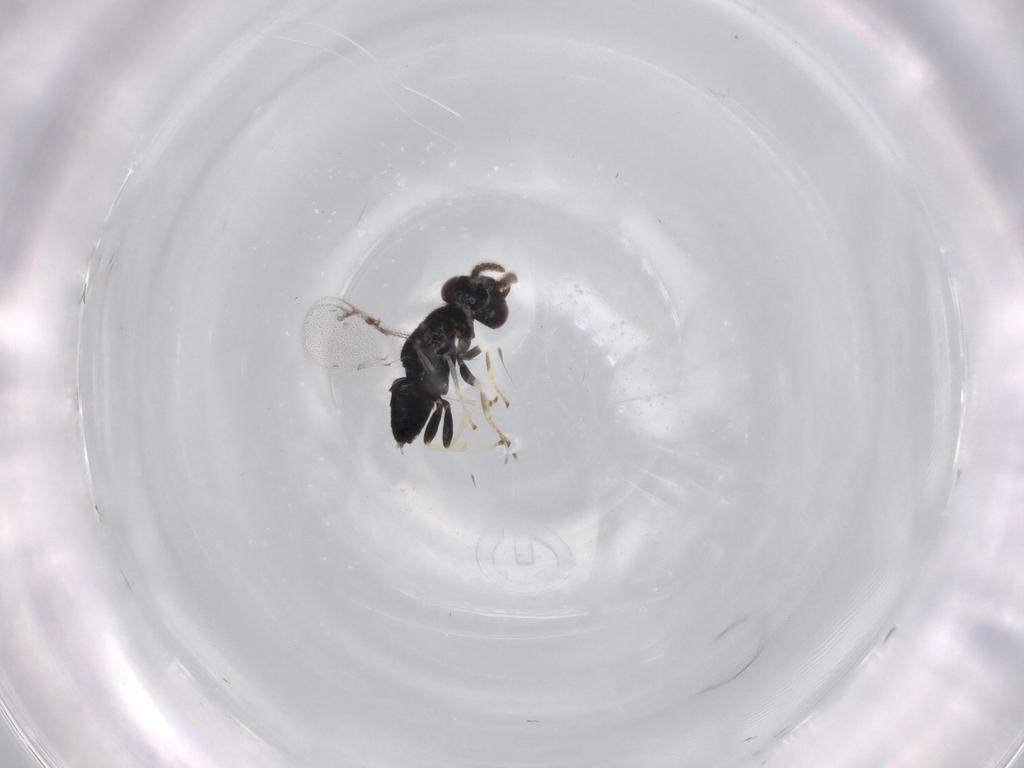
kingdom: Animalia
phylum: Arthropoda
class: Insecta
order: Hymenoptera
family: Pirenidae
